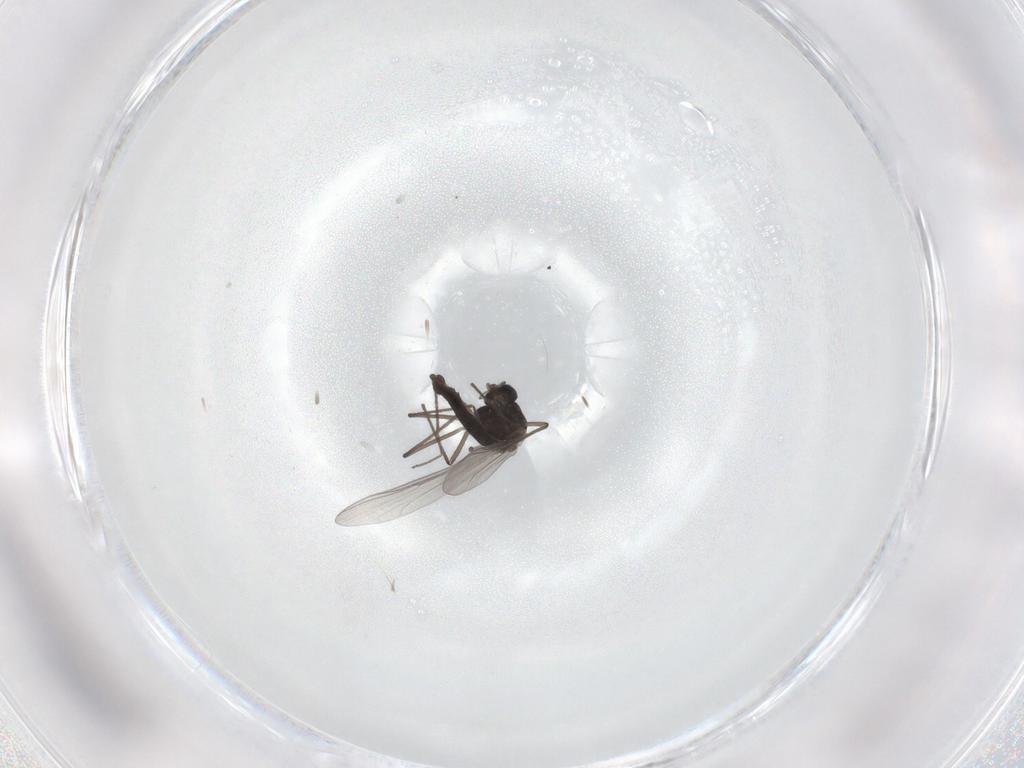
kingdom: Animalia
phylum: Arthropoda
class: Insecta
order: Diptera
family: Chironomidae
